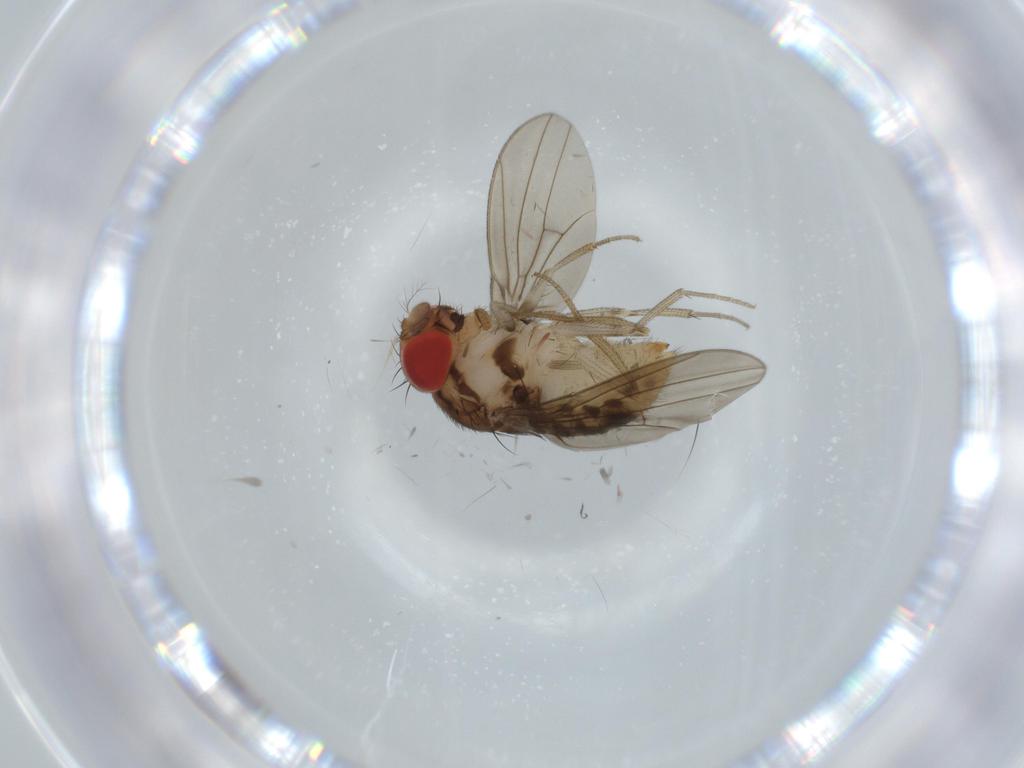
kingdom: Animalia
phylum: Arthropoda
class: Insecta
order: Diptera
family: Drosophilidae
